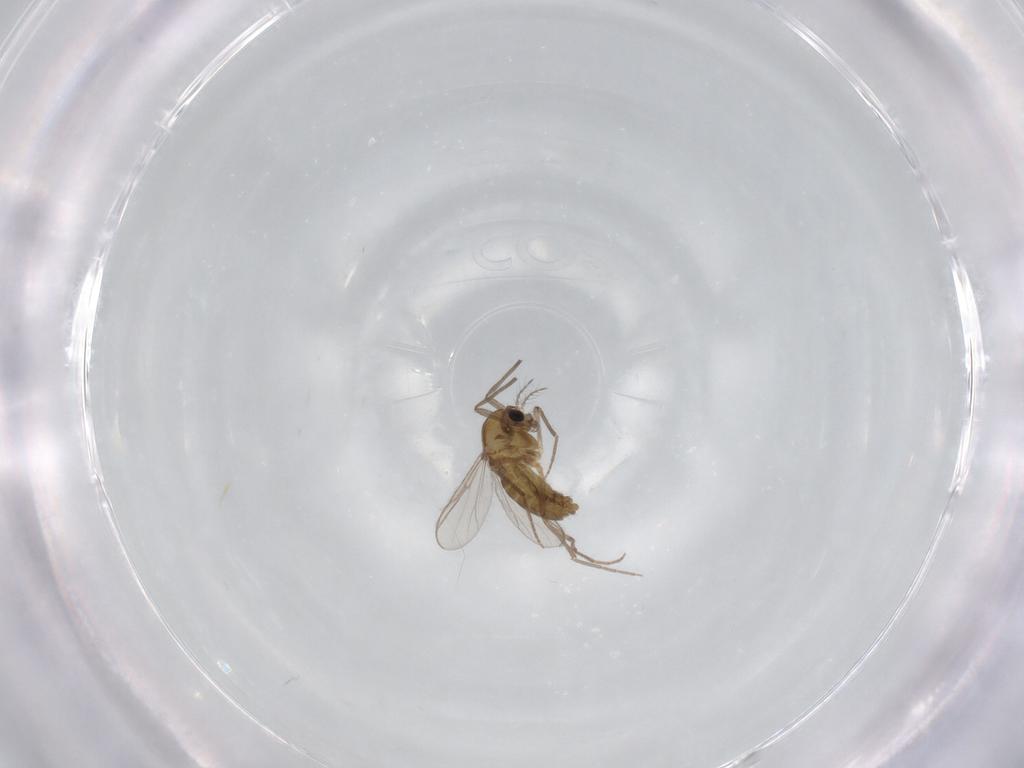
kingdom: Animalia
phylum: Arthropoda
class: Insecta
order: Diptera
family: Chironomidae
